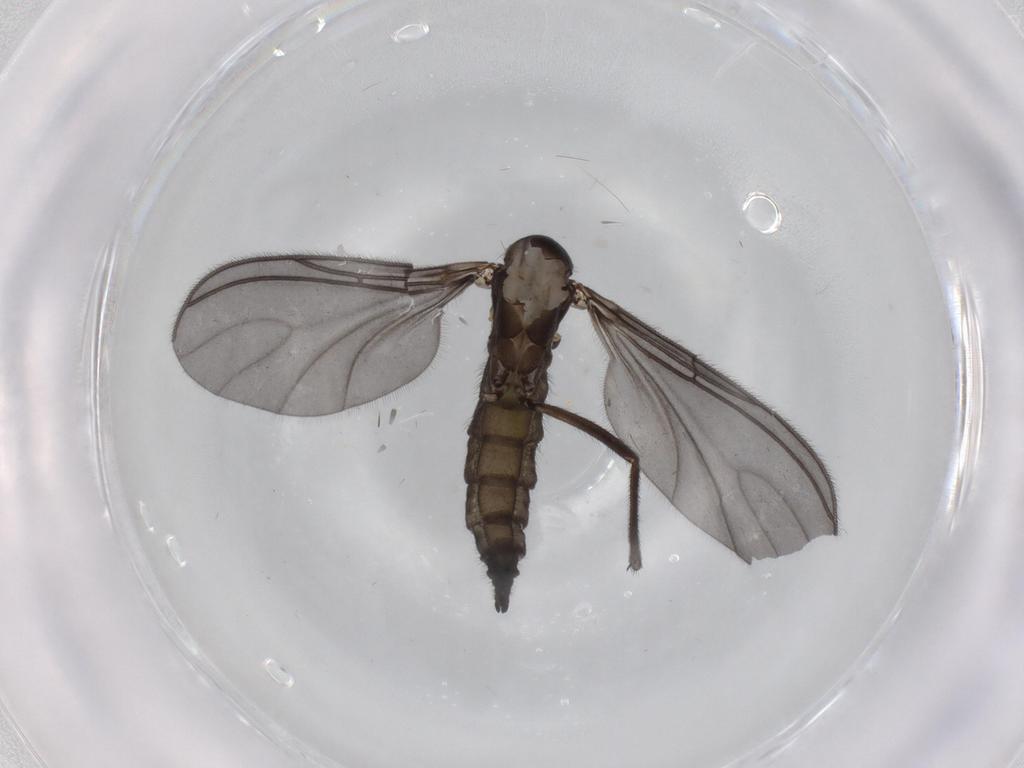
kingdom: Animalia
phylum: Arthropoda
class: Insecta
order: Diptera
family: Sciaridae
